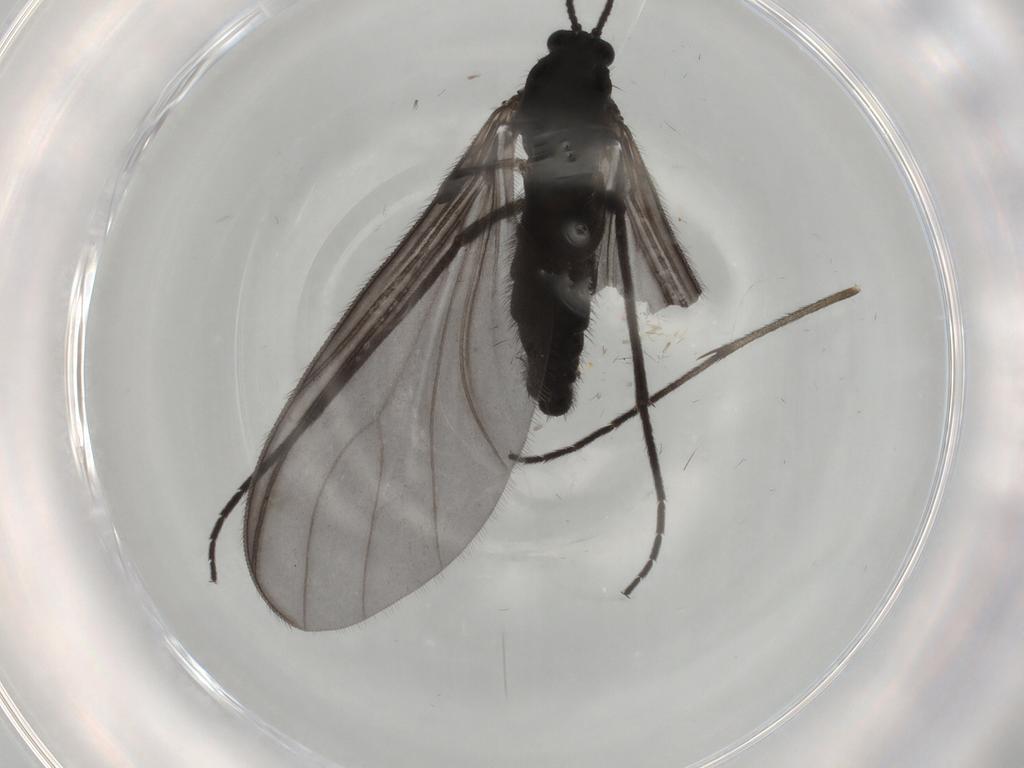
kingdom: Animalia
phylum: Arthropoda
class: Insecta
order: Diptera
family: Sciaridae
